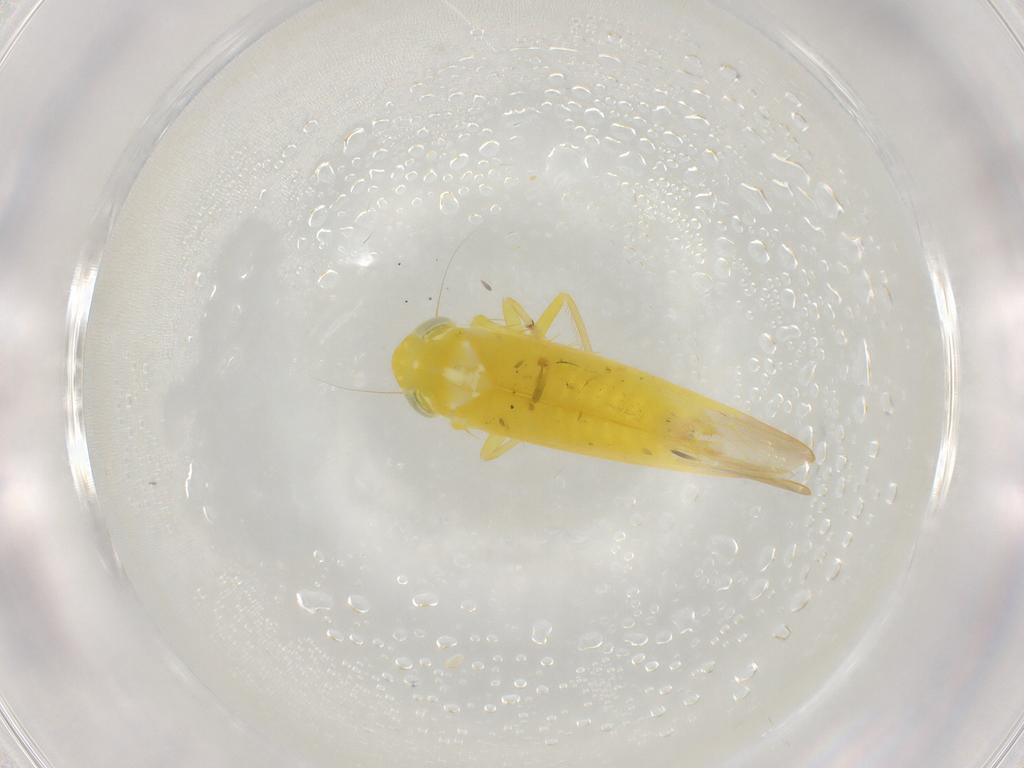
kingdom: Animalia
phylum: Arthropoda
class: Insecta
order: Hemiptera
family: Cicadellidae
